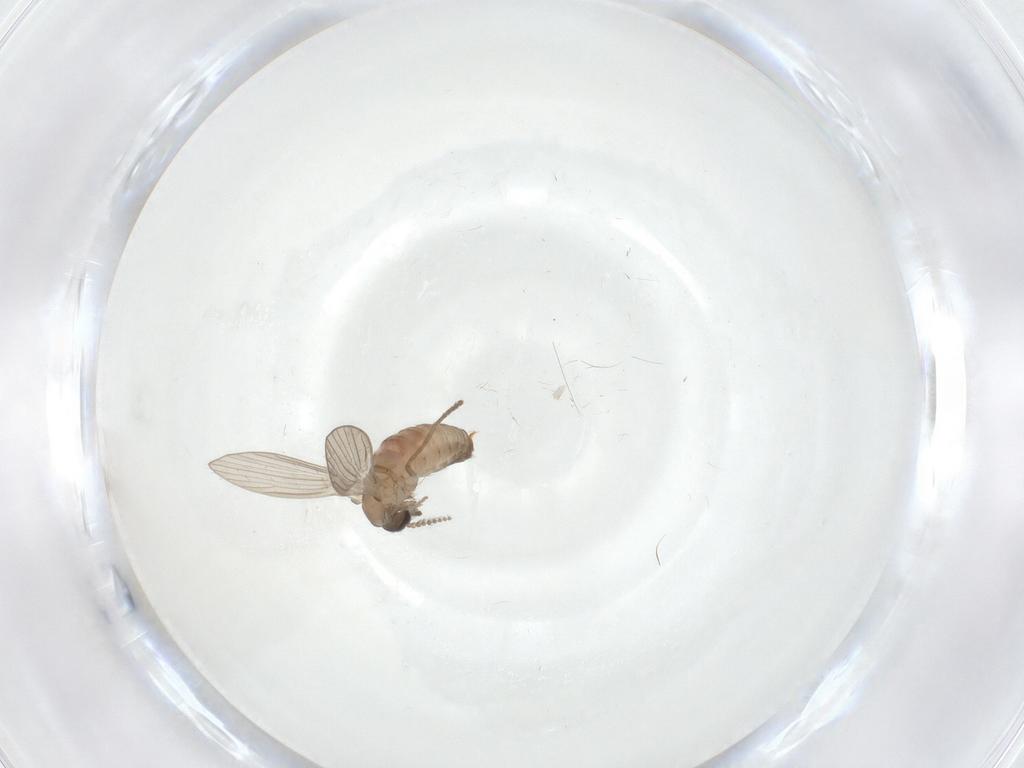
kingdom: Animalia
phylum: Arthropoda
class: Insecta
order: Diptera
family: Psychodidae
